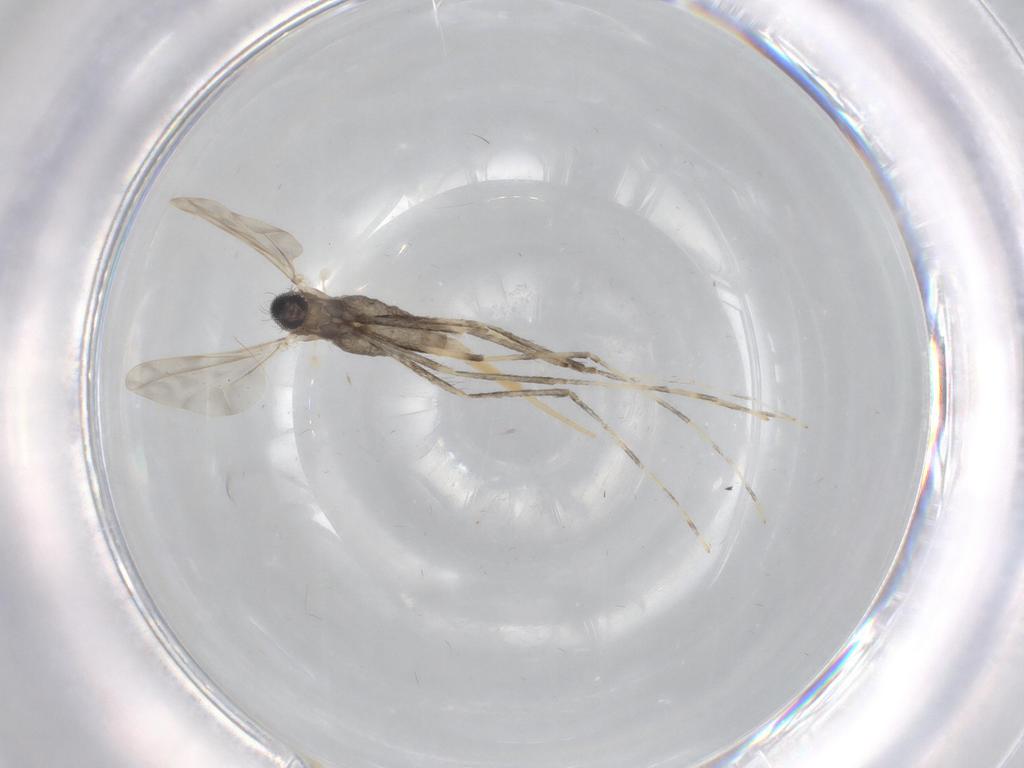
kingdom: Animalia
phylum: Arthropoda
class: Insecta
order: Diptera
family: Cecidomyiidae
